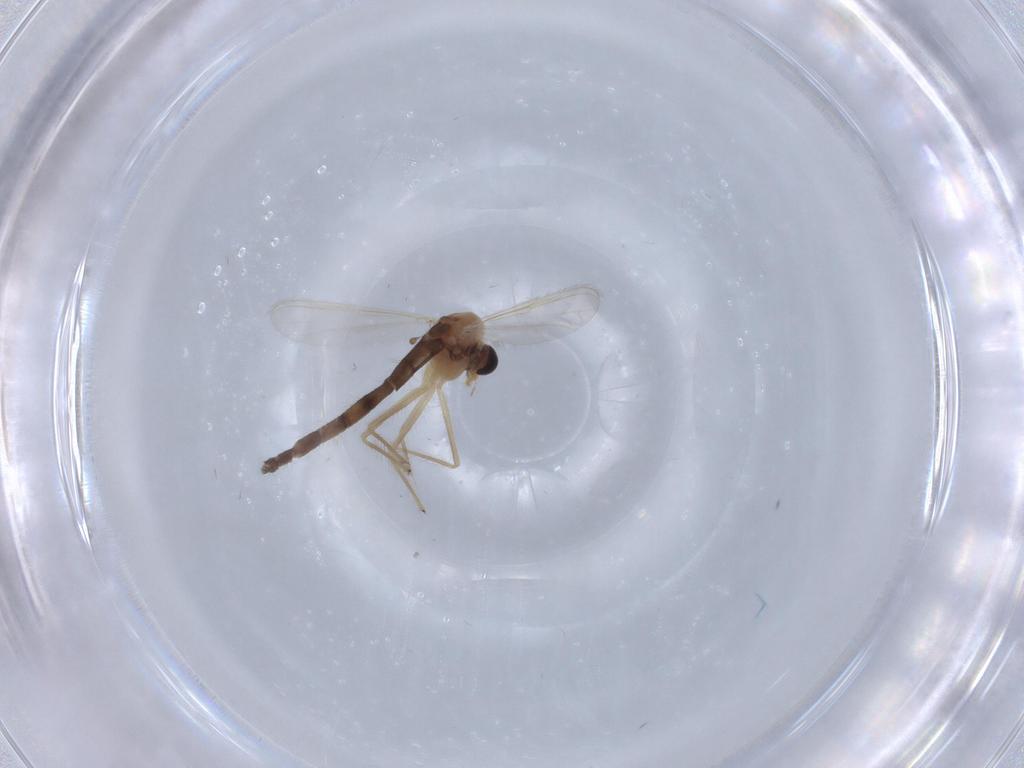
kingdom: Animalia
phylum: Arthropoda
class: Insecta
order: Diptera
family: Chironomidae
